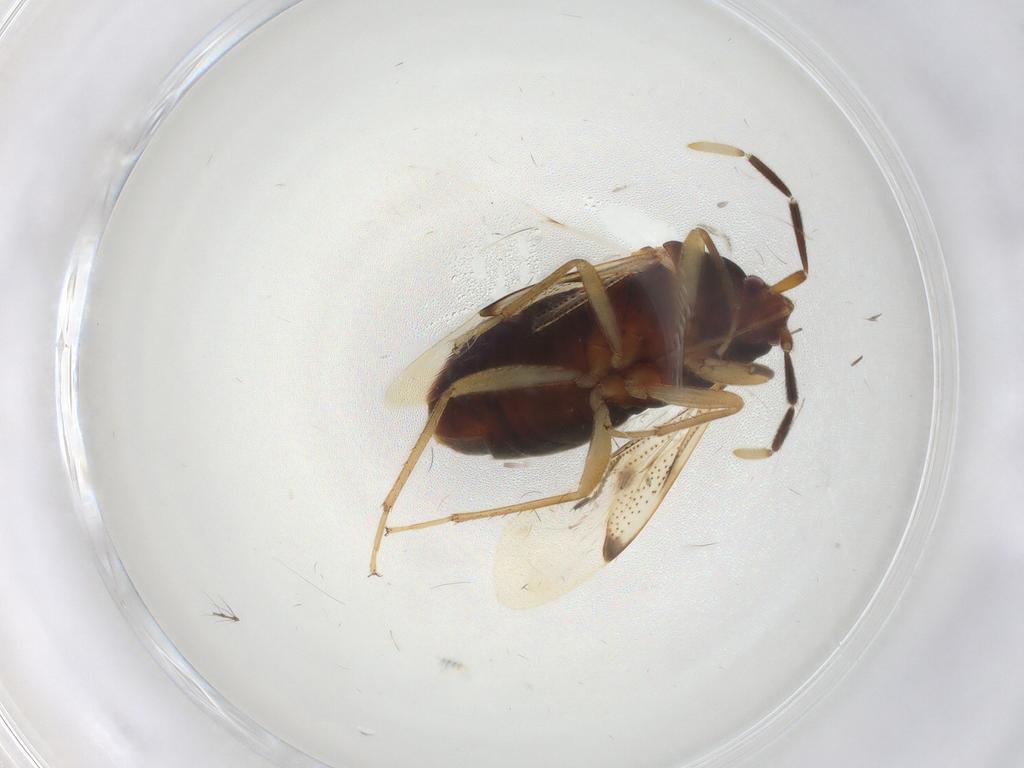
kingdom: Animalia
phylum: Arthropoda
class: Insecta
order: Hemiptera
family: Rhyparochromidae
